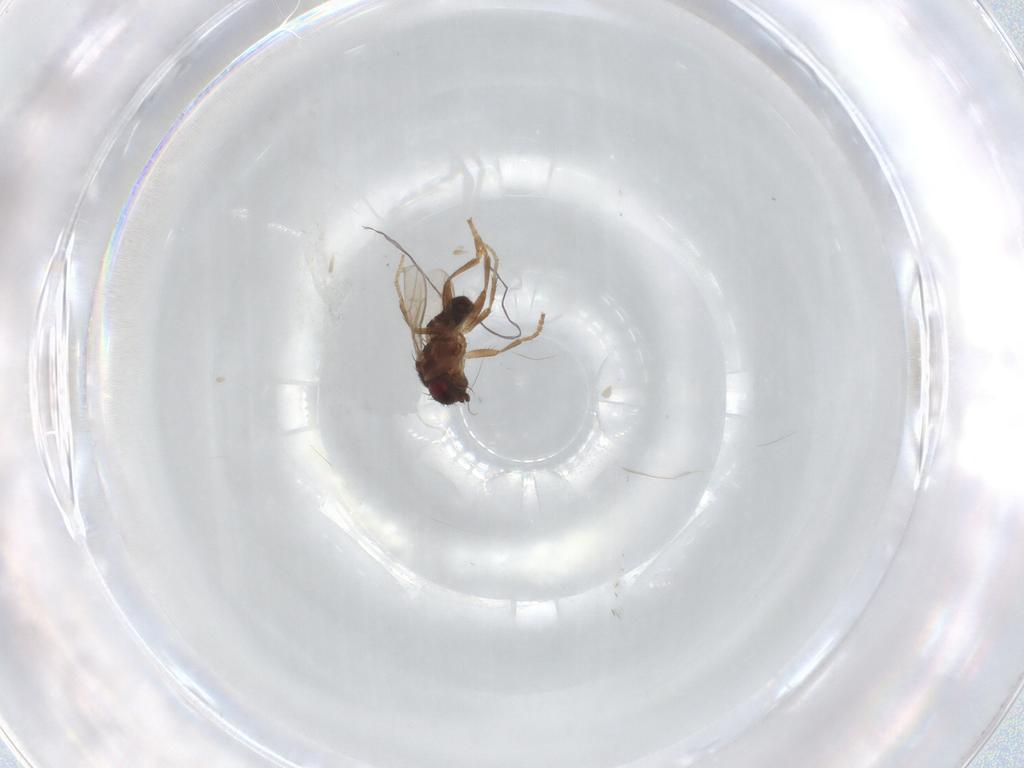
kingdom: Animalia
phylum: Arthropoda
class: Insecta
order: Diptera
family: Sphaeroceridae
